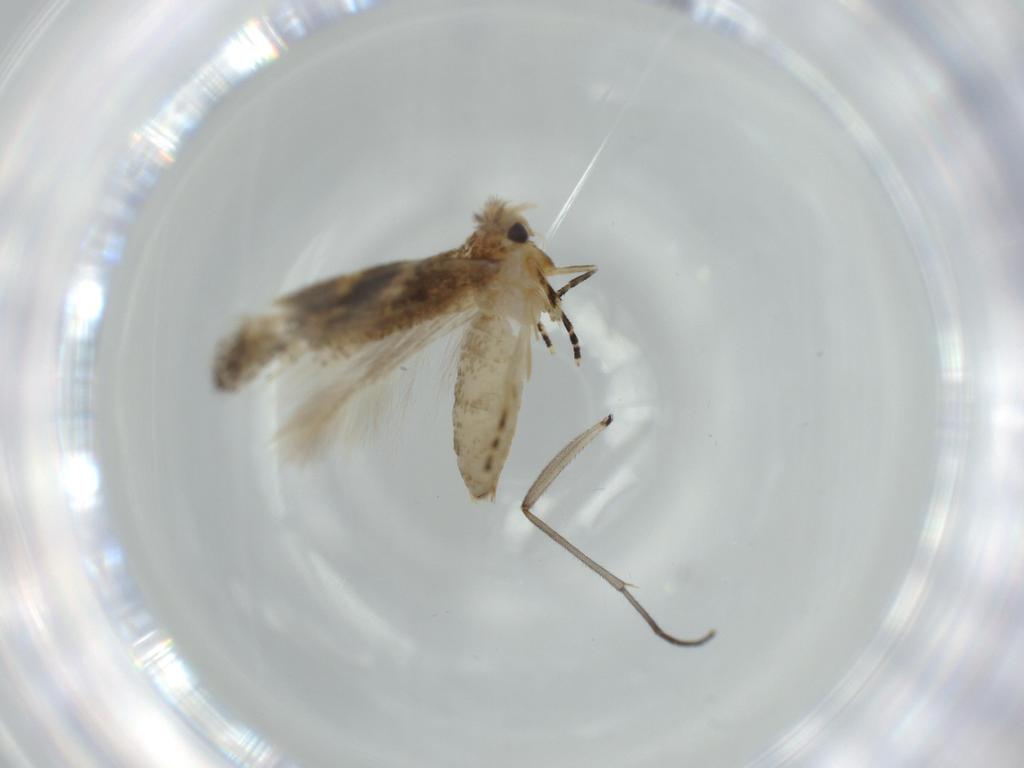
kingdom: Animalia
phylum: Arthropoda
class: Insecta
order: Lepidoptera
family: Bucculatricidae
